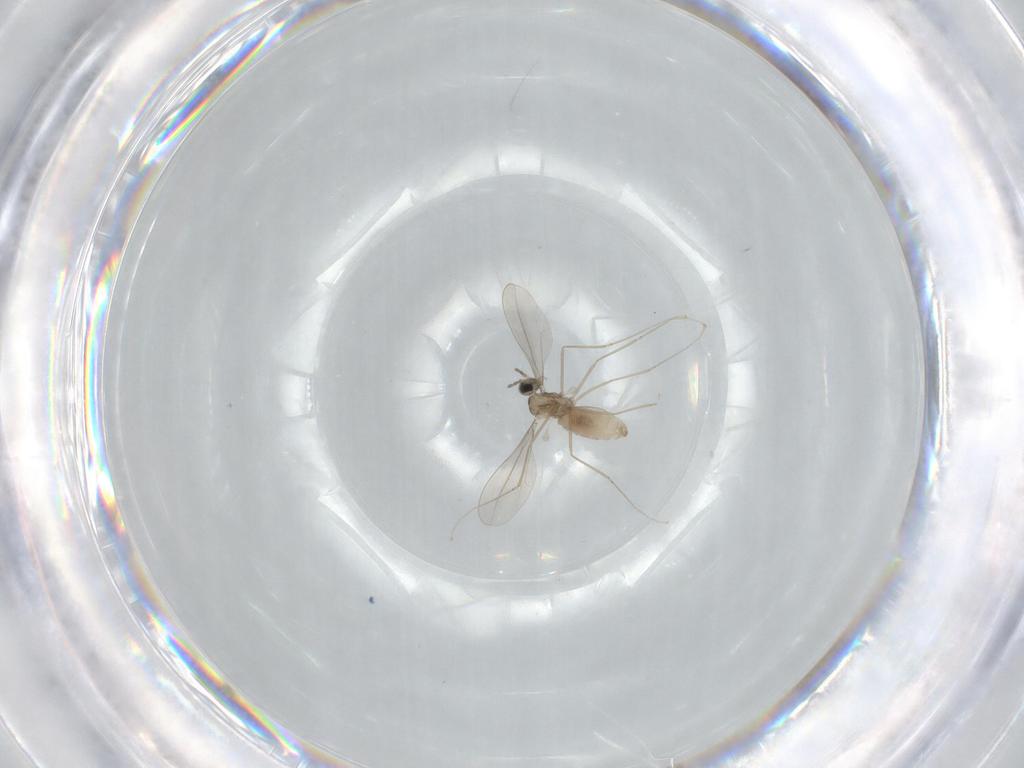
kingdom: Animalia
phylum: Arthropoda
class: Insecta
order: Diptera
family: Cecidomyiidae
